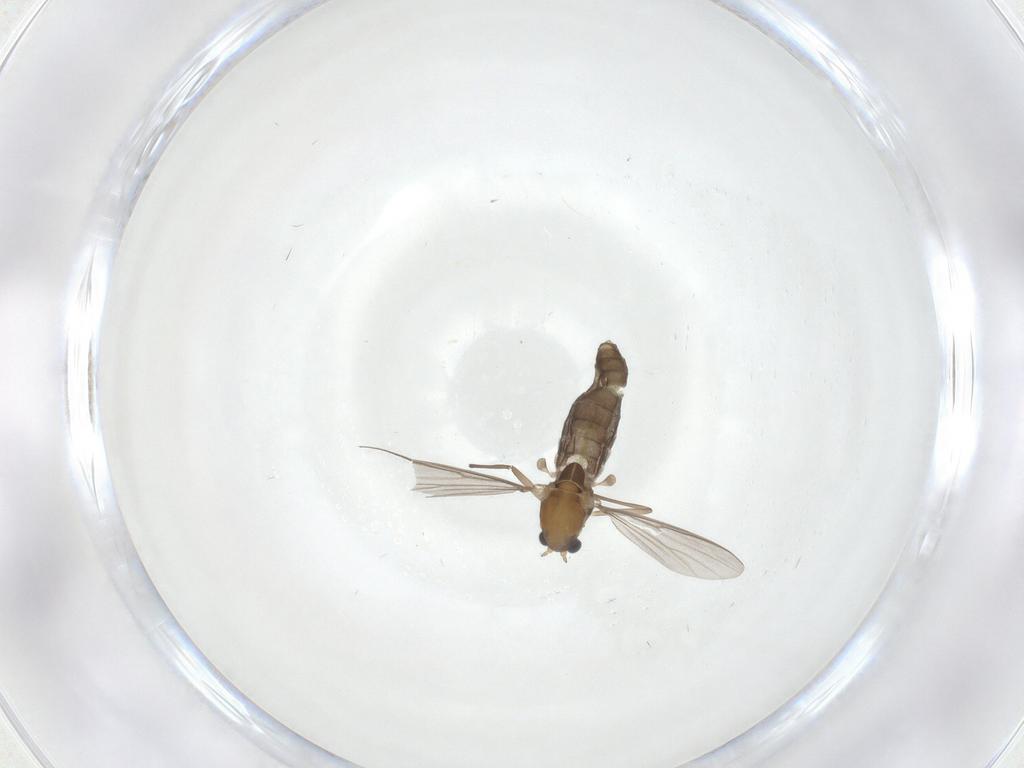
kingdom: Animalia
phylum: Arthropoda
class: Insecta
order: Diptera
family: Chironomidae
